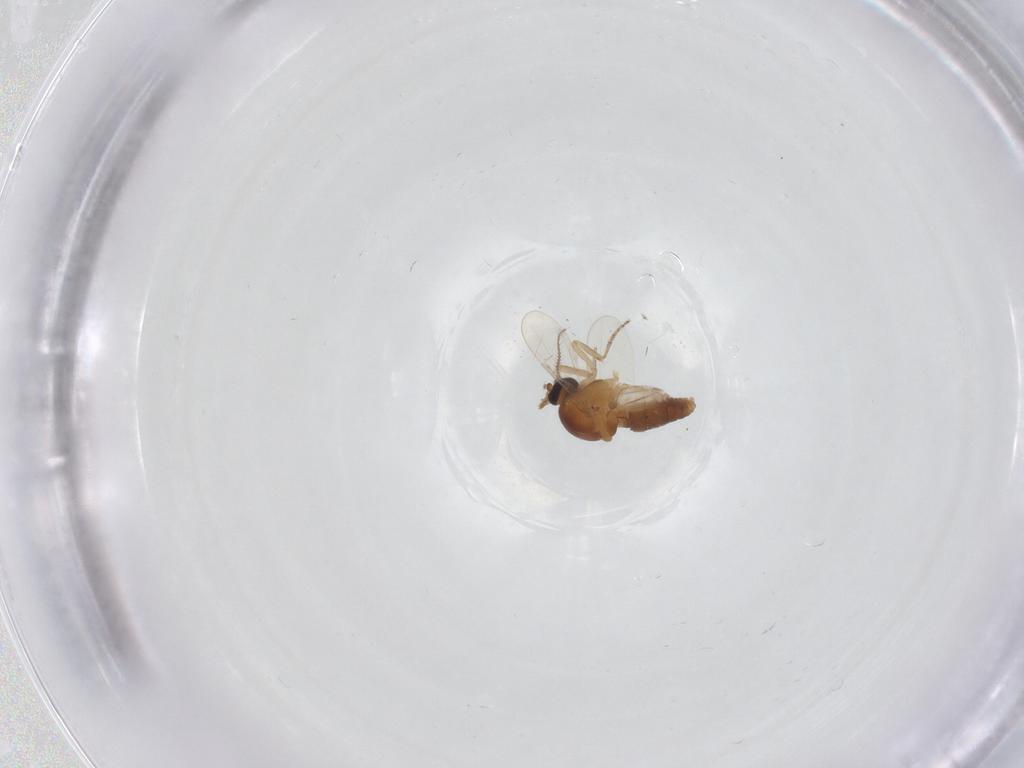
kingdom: Animalia
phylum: Arthropoda
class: Insecta
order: Diptera
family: Ceratopogonidae
